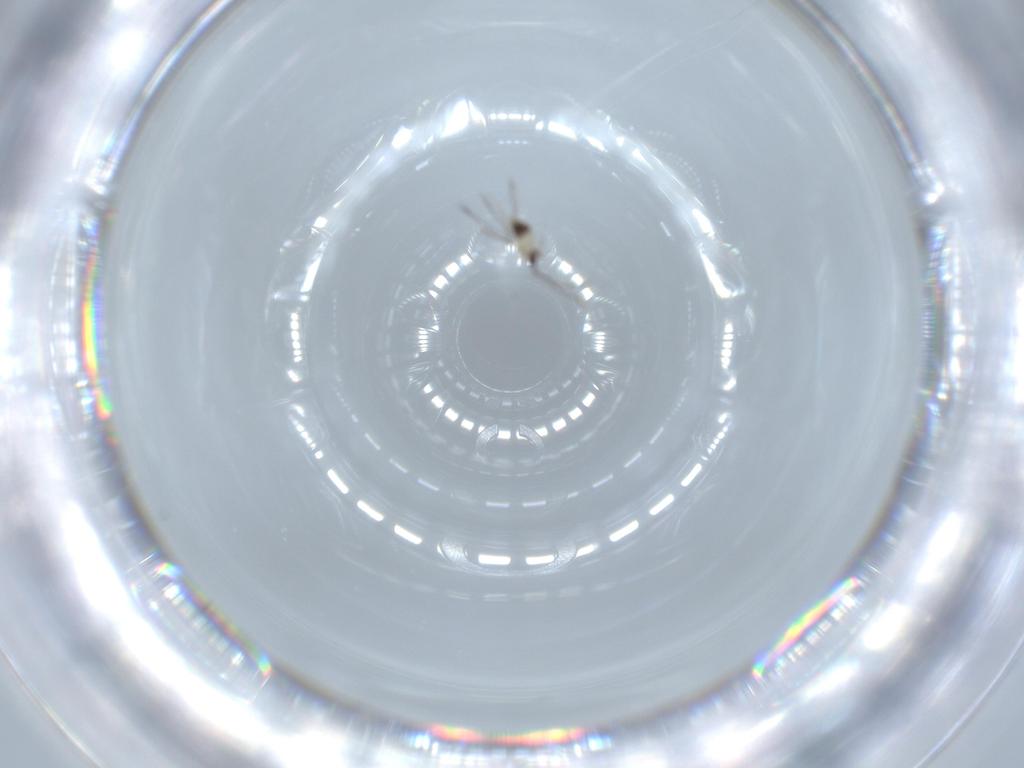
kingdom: Animalia
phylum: Arthropoda
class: Insecta
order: Hymenoptera
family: Mymaridae
